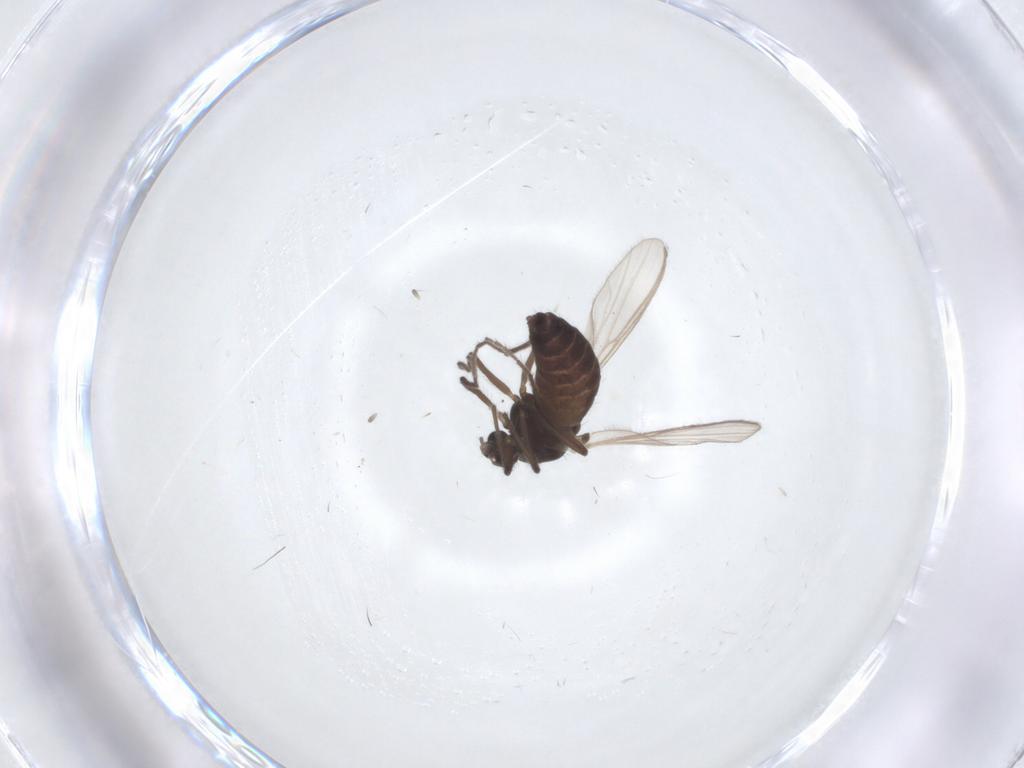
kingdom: Animalia
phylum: Arthropoda
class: Insecta
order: Diptera
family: Chironomidae
